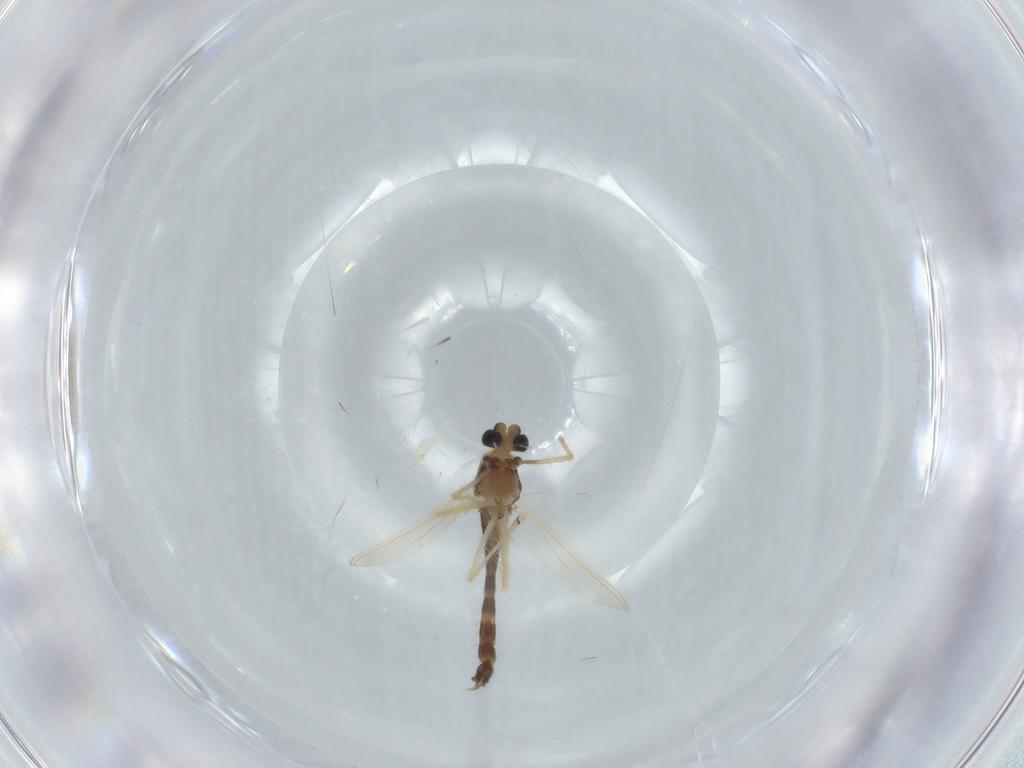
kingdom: Animalia
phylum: Arthropoda
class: Insecta
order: Diptera
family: Chironomidae
